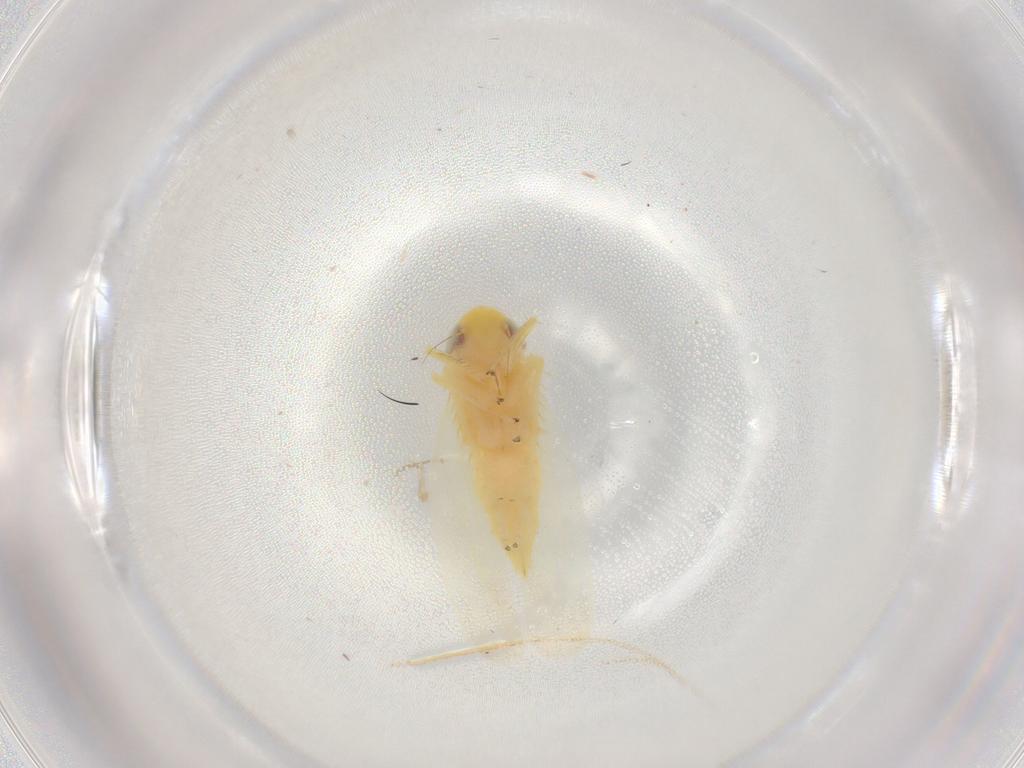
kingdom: Animalia
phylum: Arthropoda
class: Insecta
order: Hemiptera
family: Cicadellidae
